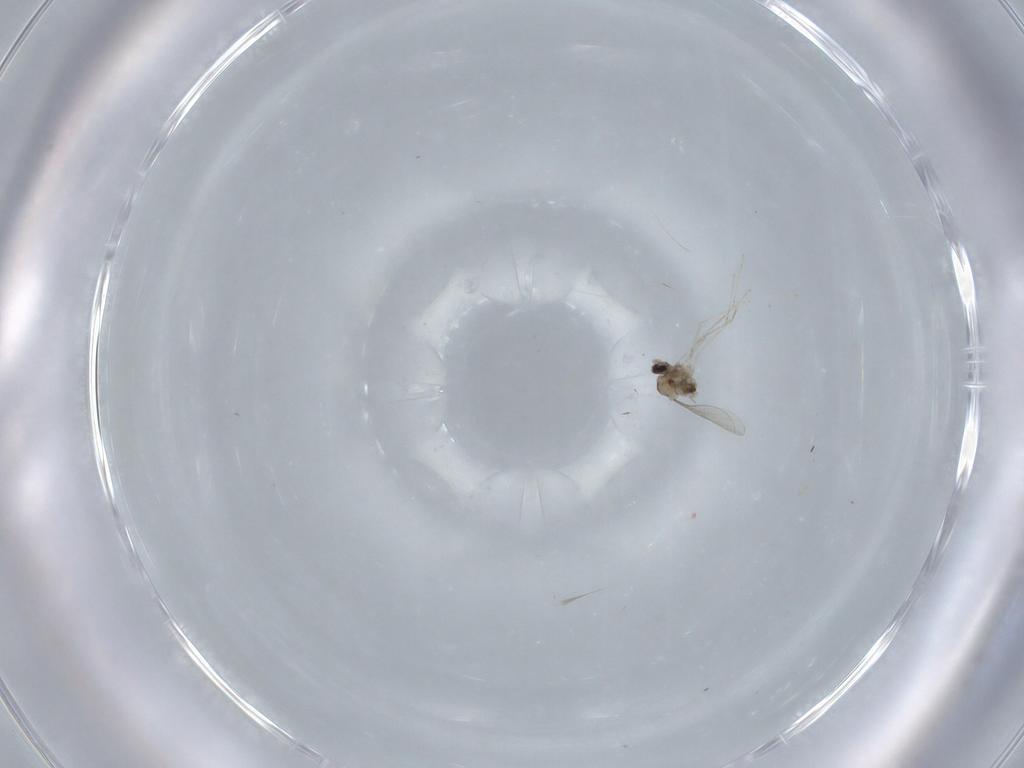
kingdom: Animalia
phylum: Arthropoda
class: Insecta
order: Diptera
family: Cecidomyiidae
